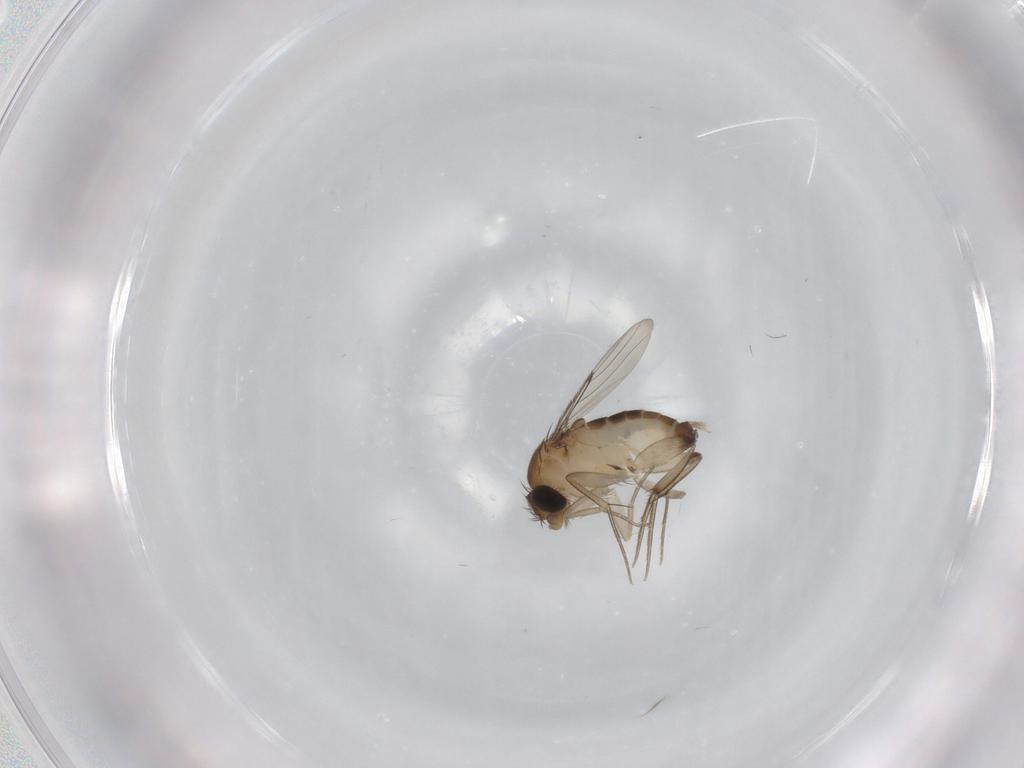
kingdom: Animalia
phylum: Arthropoda
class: Insecta
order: Diptera
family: Phoridae
